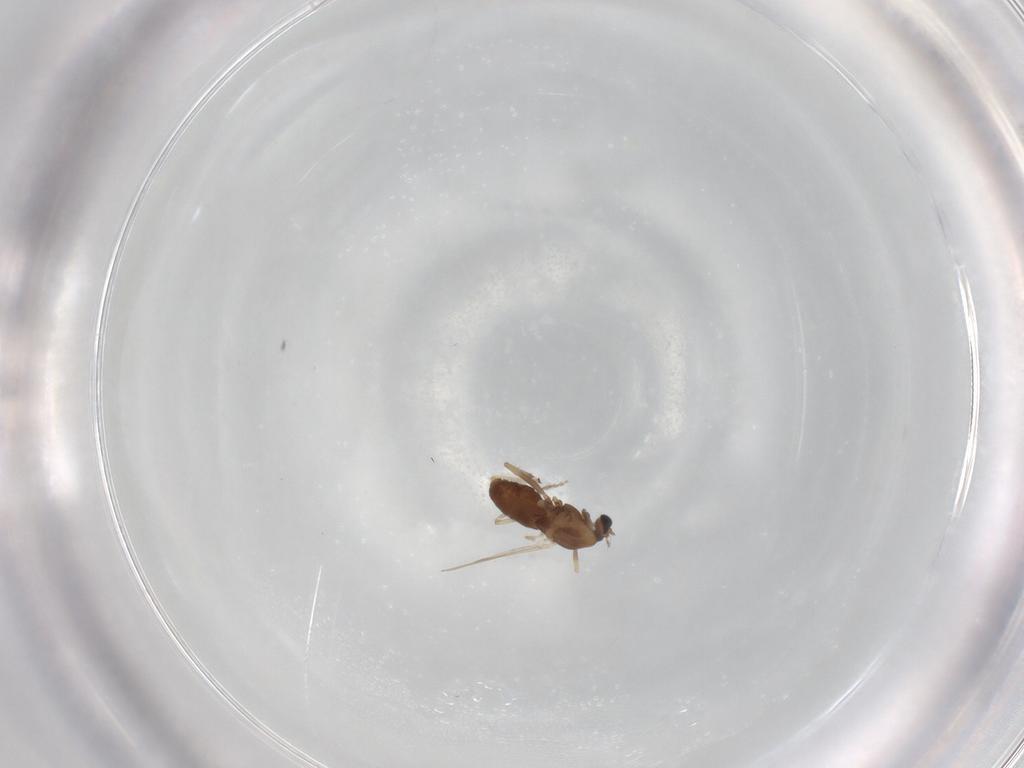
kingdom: Animalia
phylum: Arthropoda
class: Insecta
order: Diptera
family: Chironomidae
